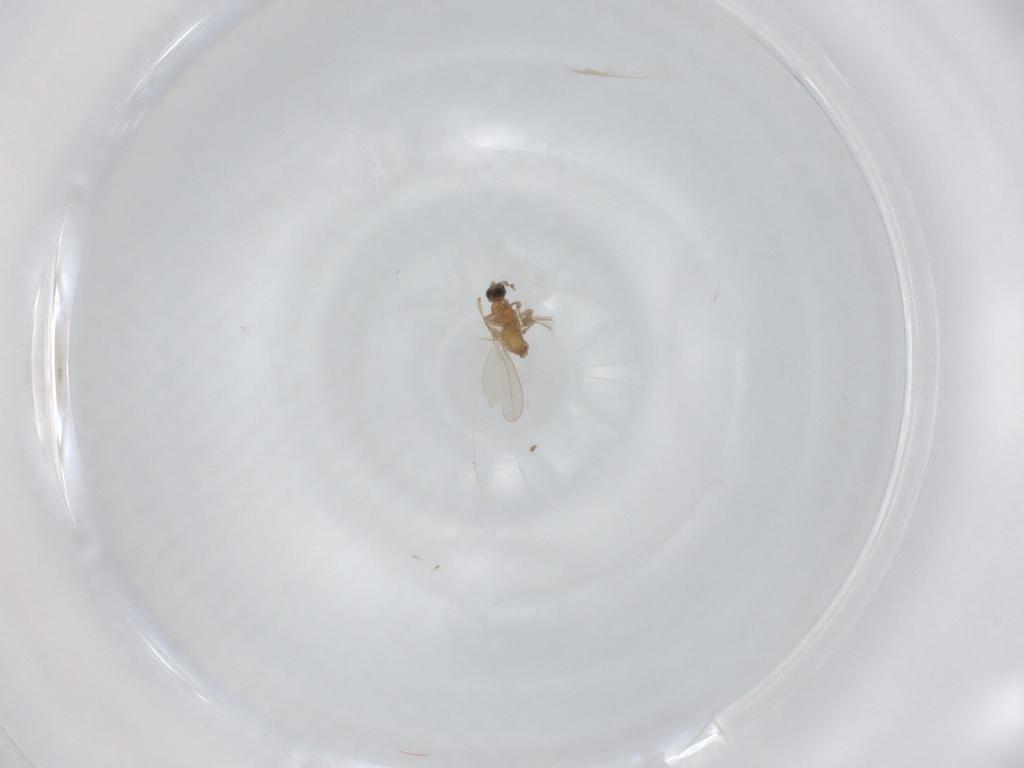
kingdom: Animalia
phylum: Arthropoda
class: Insecta
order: Diptera
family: Cecidomyiidae
